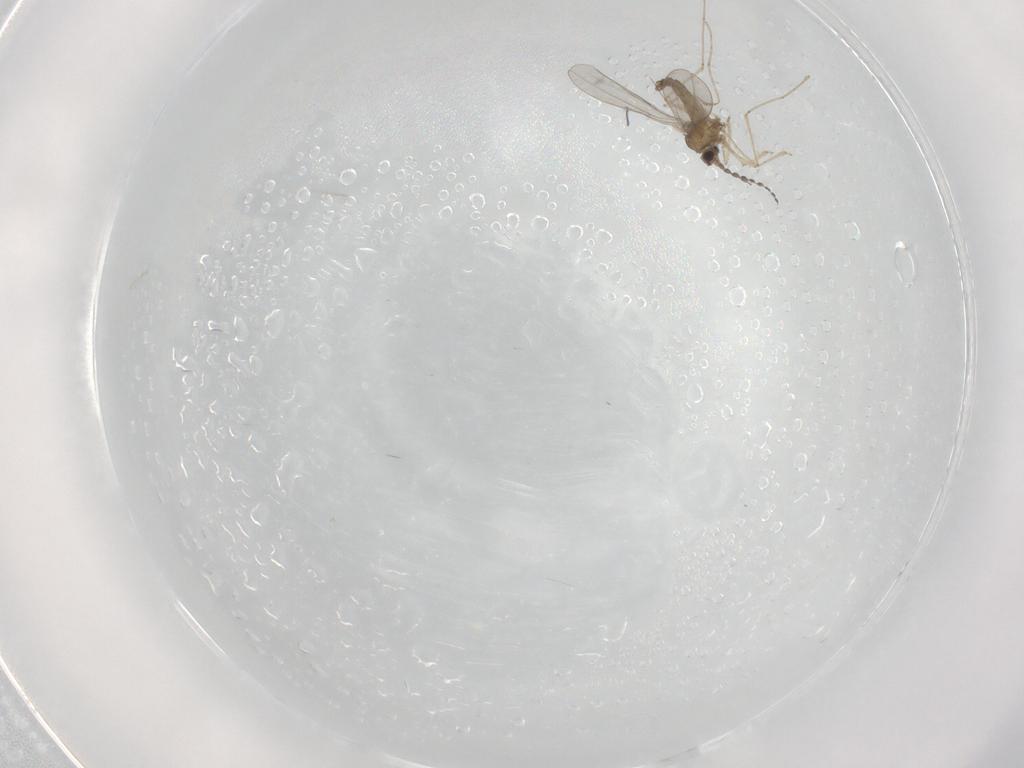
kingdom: Animalia
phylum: Arthropoda
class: Insecta
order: Diptera
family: Cecidomyiidae
